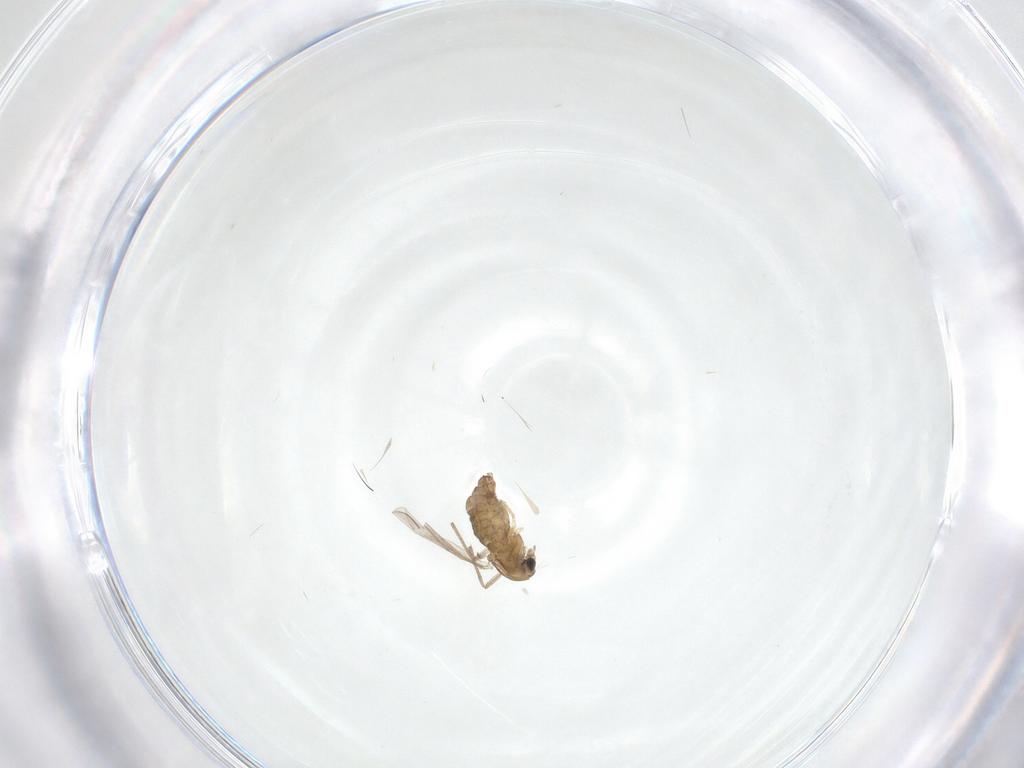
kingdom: Animalia
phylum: Arthropoda
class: Insecta
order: Diptera
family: Chironomidae
